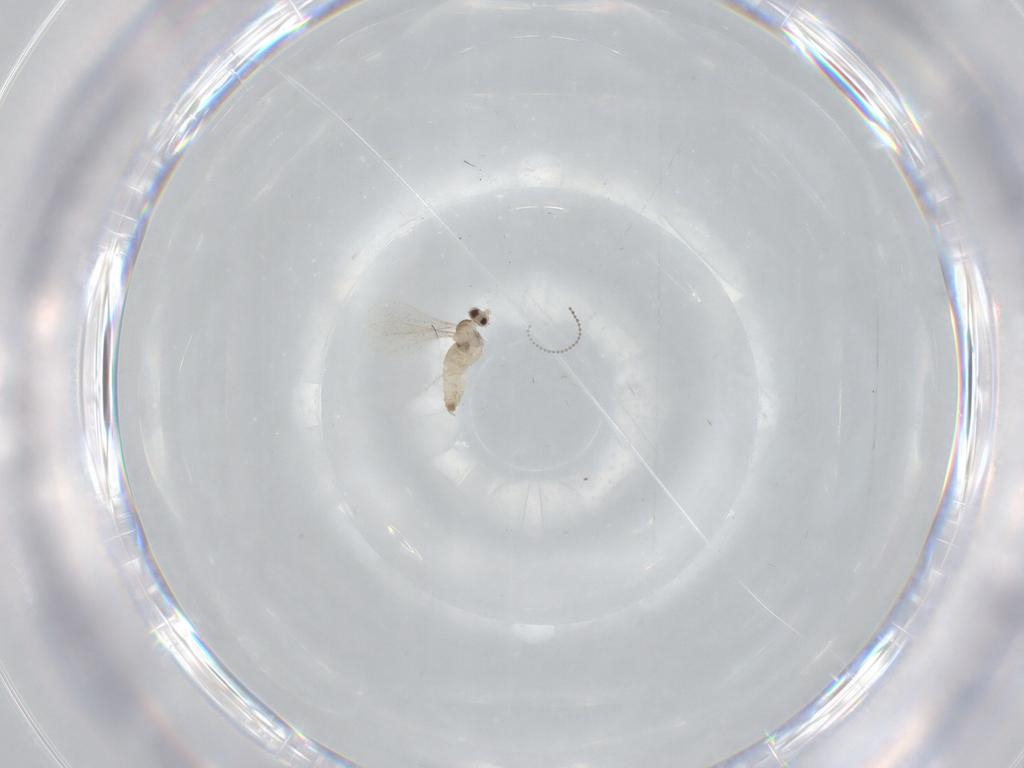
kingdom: Animalia
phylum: Arthropoda
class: Insecta
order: Diptera
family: Cecidomyiidae
